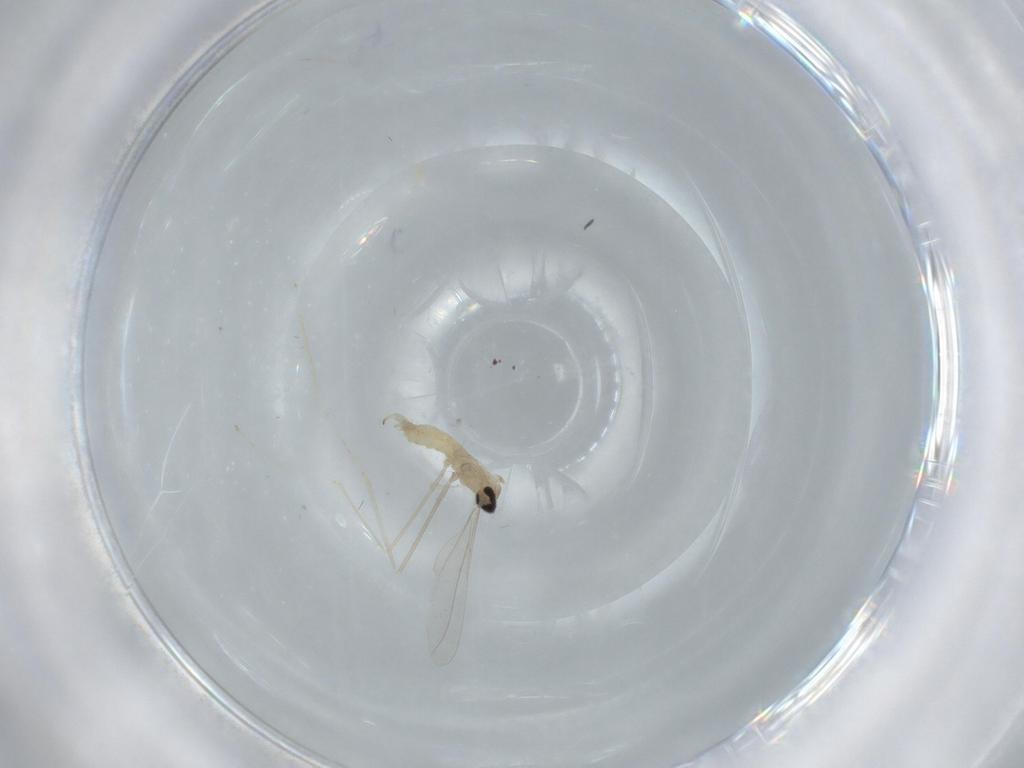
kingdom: Animalia
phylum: Arthropoda
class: Insecta
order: Diptera
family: Cecidomyiidae
